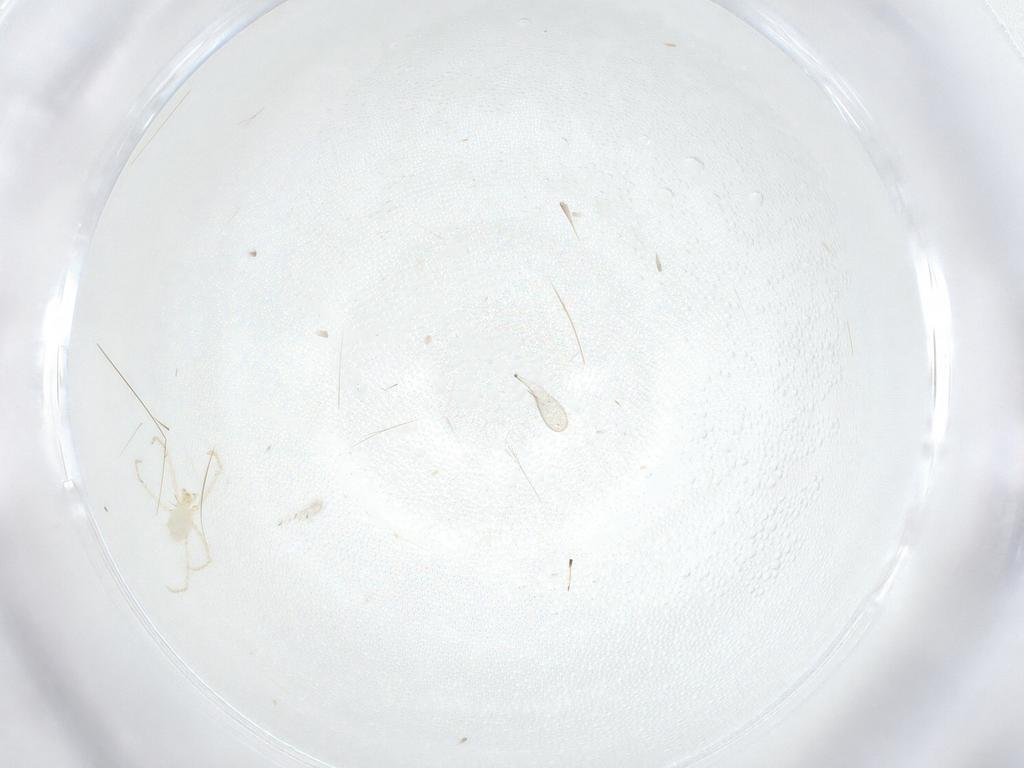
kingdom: Animalia
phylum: Arthropoda
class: Arachnida
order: Trombidiformes
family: Erythraeidae
